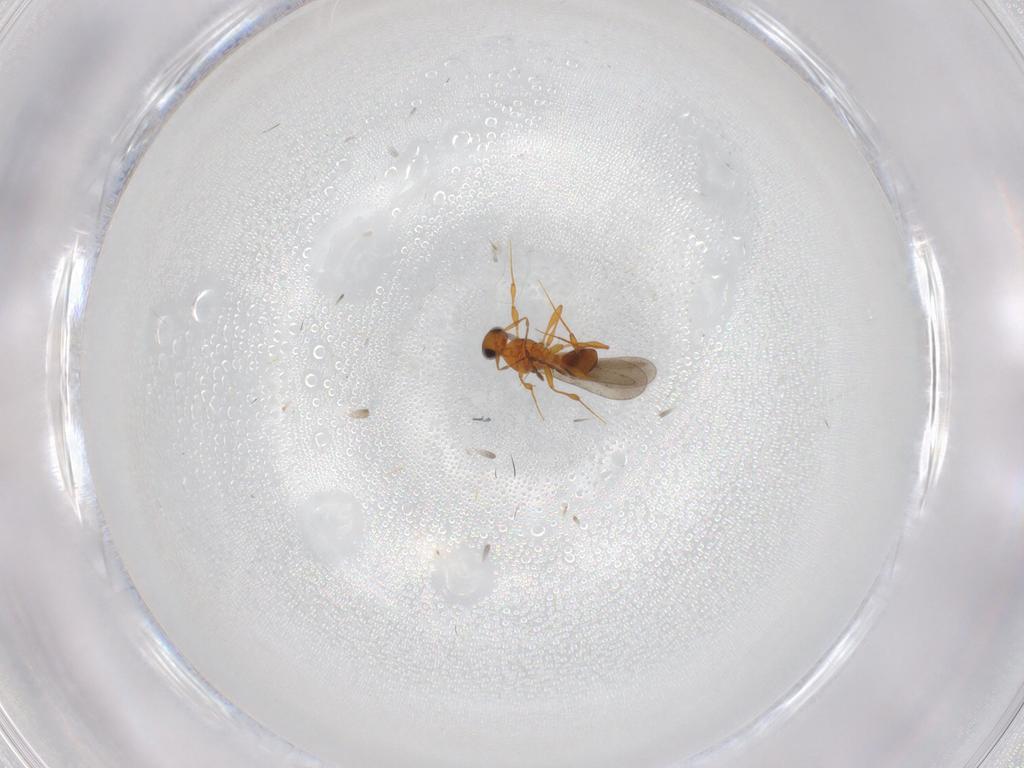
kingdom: Animalia
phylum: Arthropoda
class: Insecta
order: Hymenoptera
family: Platygastridae
